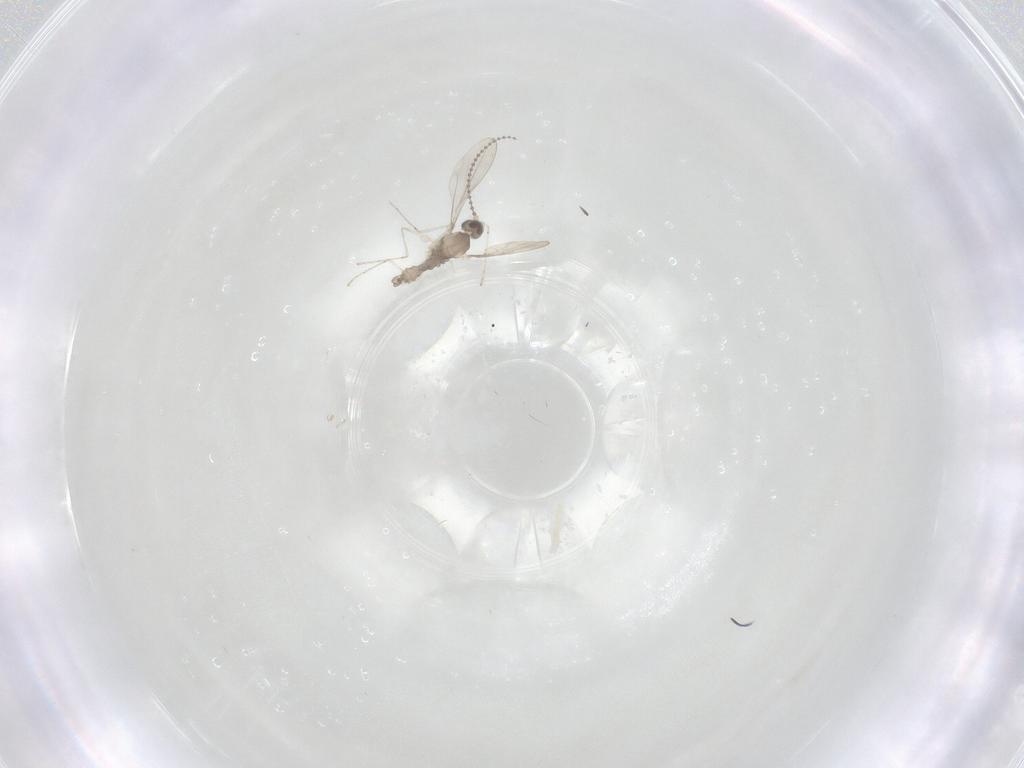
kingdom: Animalia
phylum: Arthropoda
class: Insecta
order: Diptera
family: Cecidomyiidae
